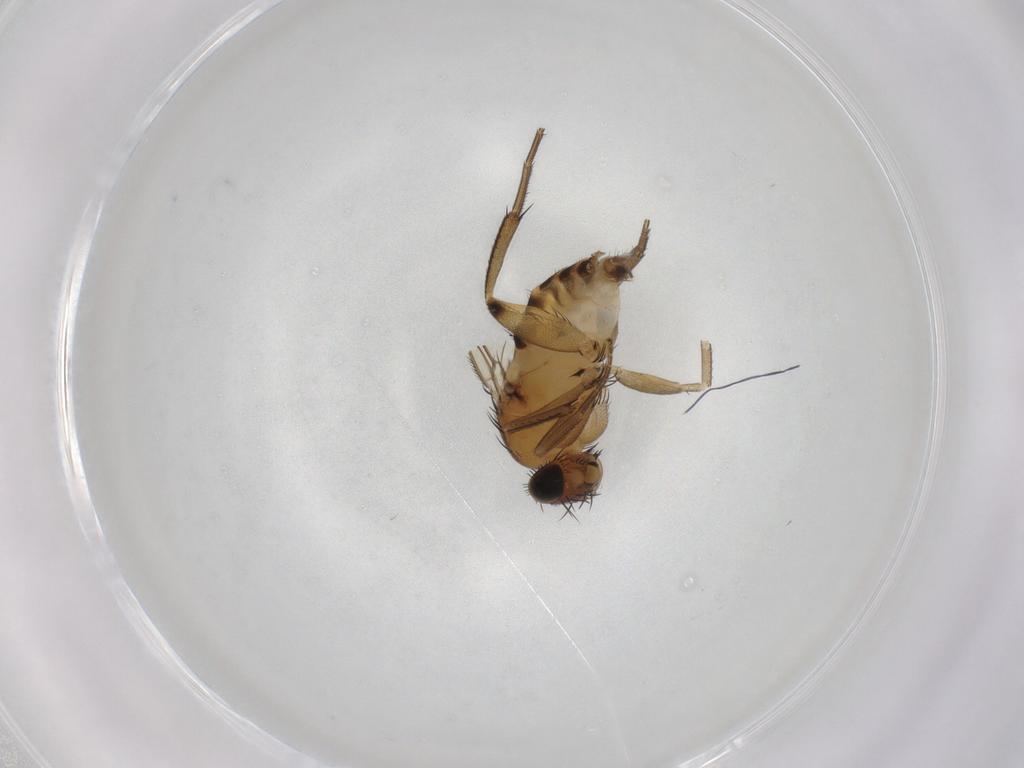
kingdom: Animalia
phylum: Arthropoda
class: Insecta
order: Diptera
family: Phoridae
